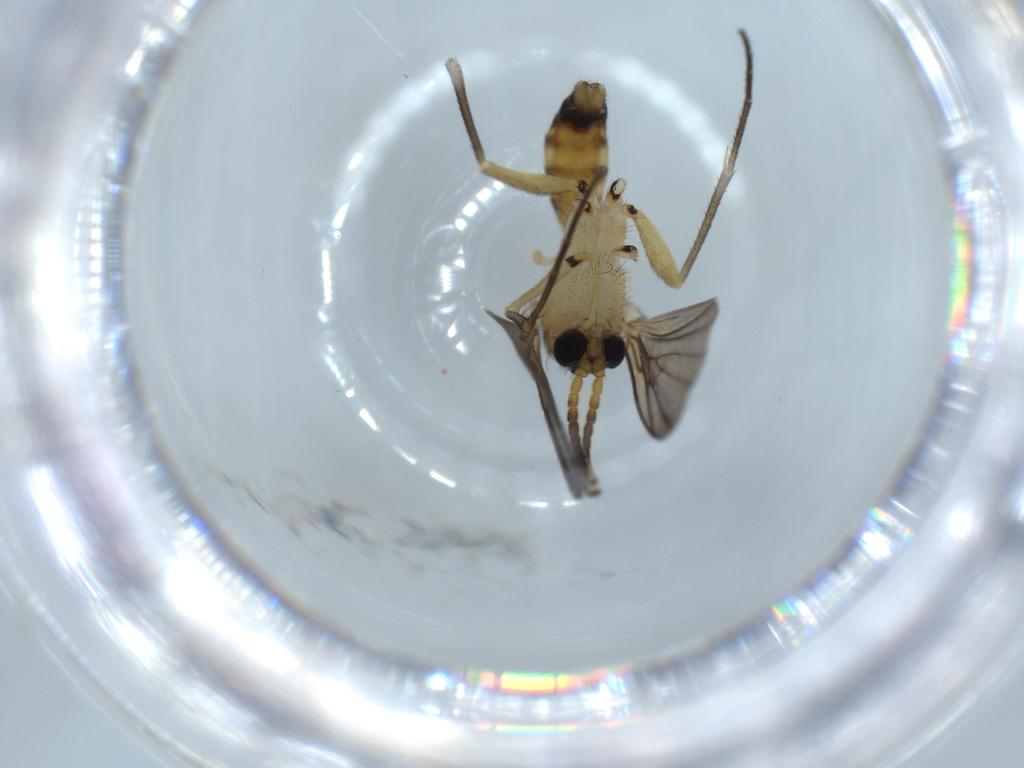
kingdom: Animalia
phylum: Arthropoda
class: Insecta
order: Diptera
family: Mycetophilidae
